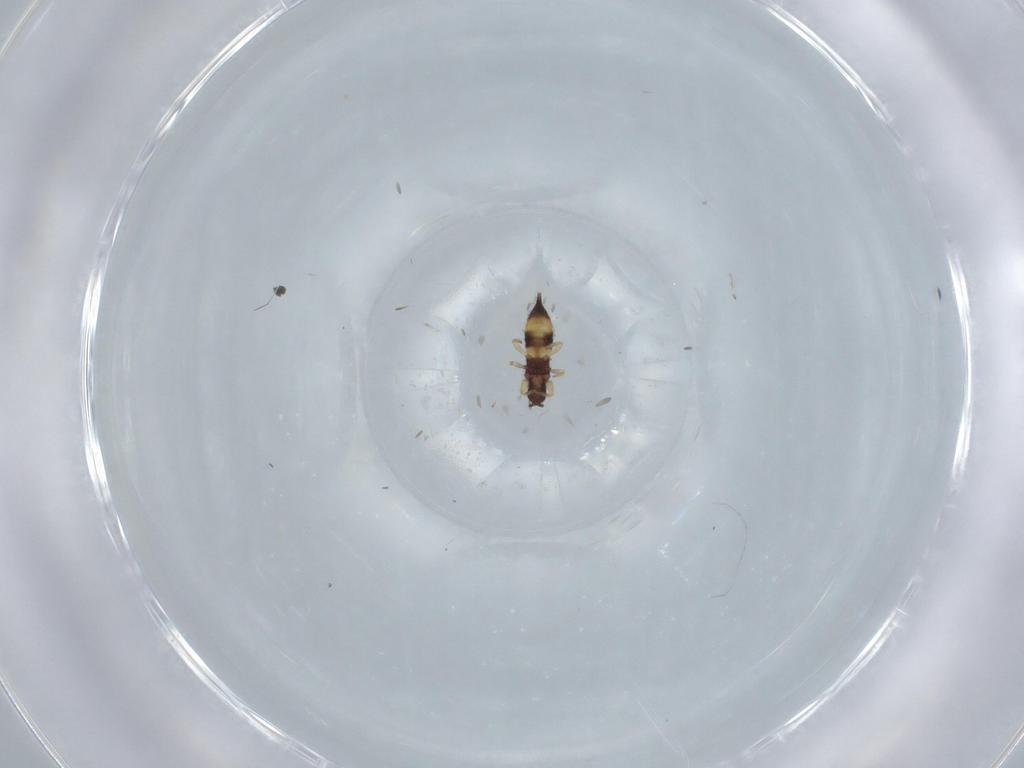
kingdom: Animalia
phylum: Arthropoda
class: Insecta
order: Thysanoptera
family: Phlaeothripidae
